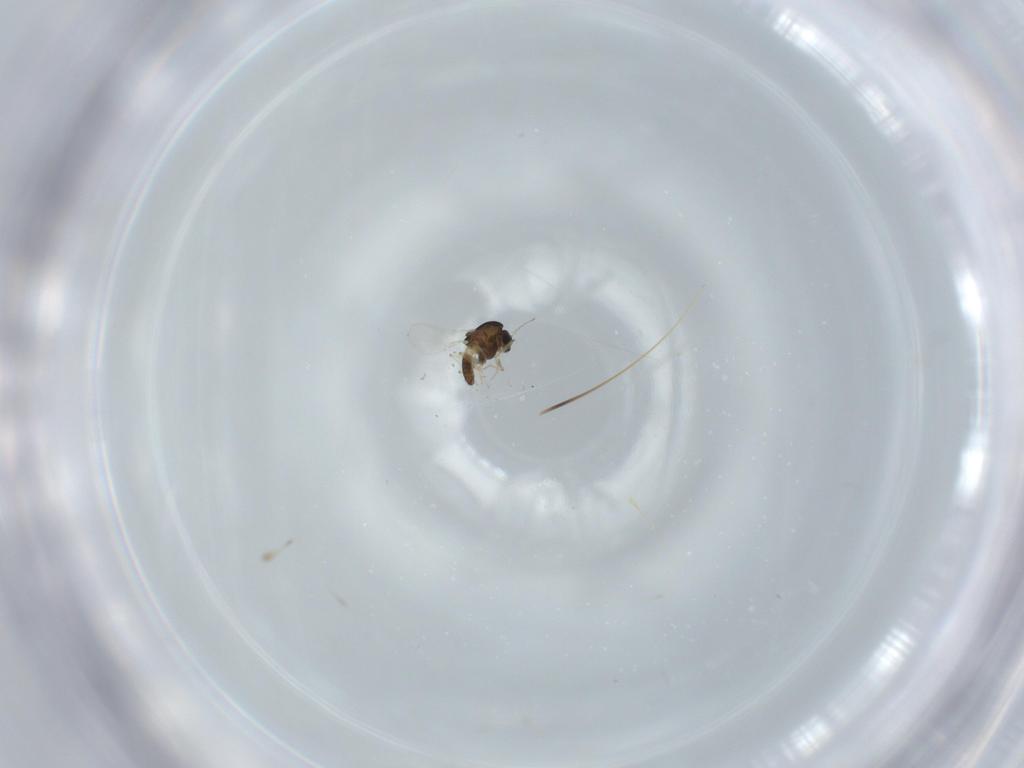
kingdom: Animalia
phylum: Arthropoda
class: Insecta
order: Diptera
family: Chironomidae
